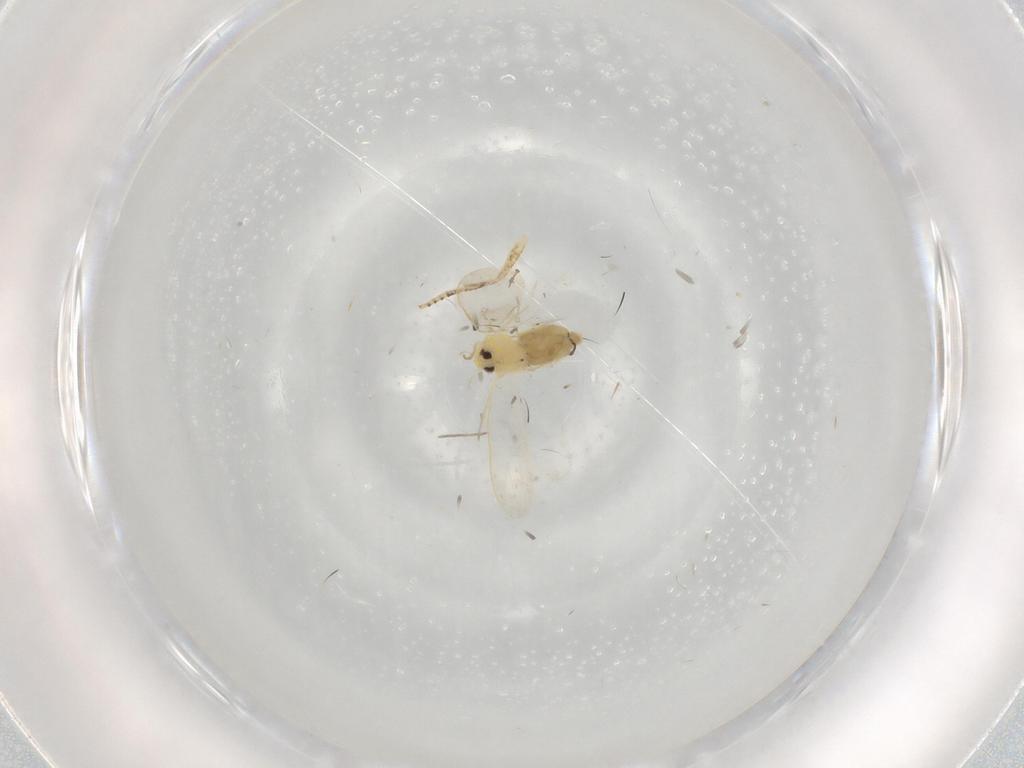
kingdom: Animalia
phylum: Arthropoda
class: Insecta
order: Hemiptera
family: Aleyrodidae
